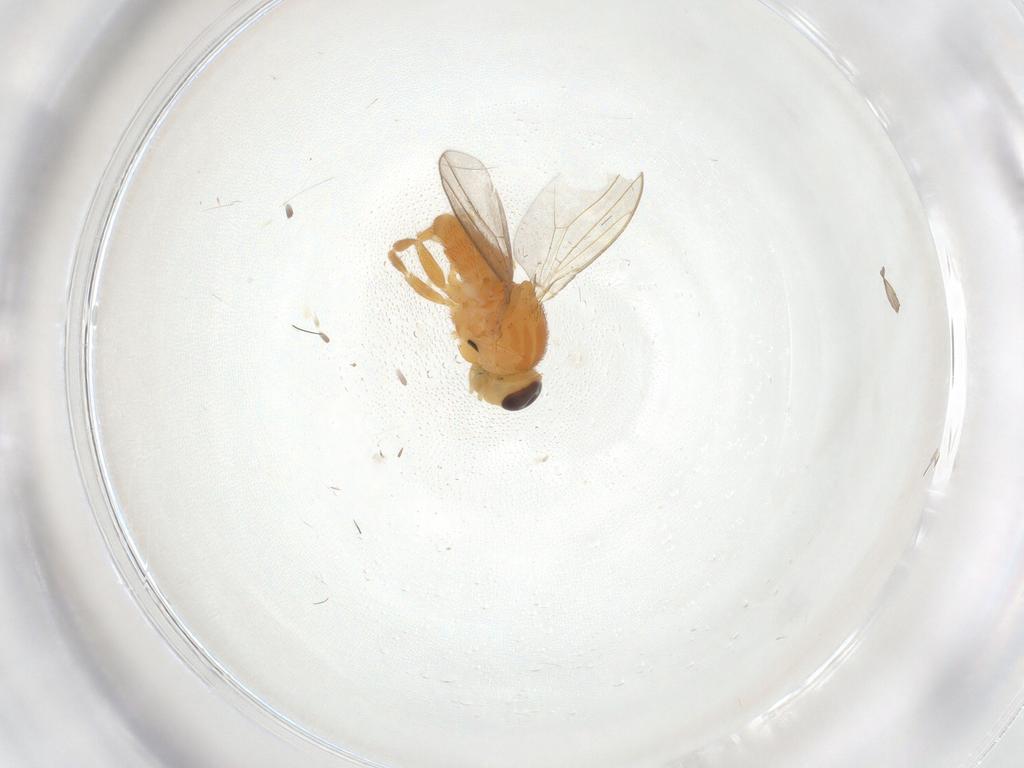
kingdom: Animalia
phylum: Arthropoda
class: Insecta
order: Diptera
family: Chloropidae
